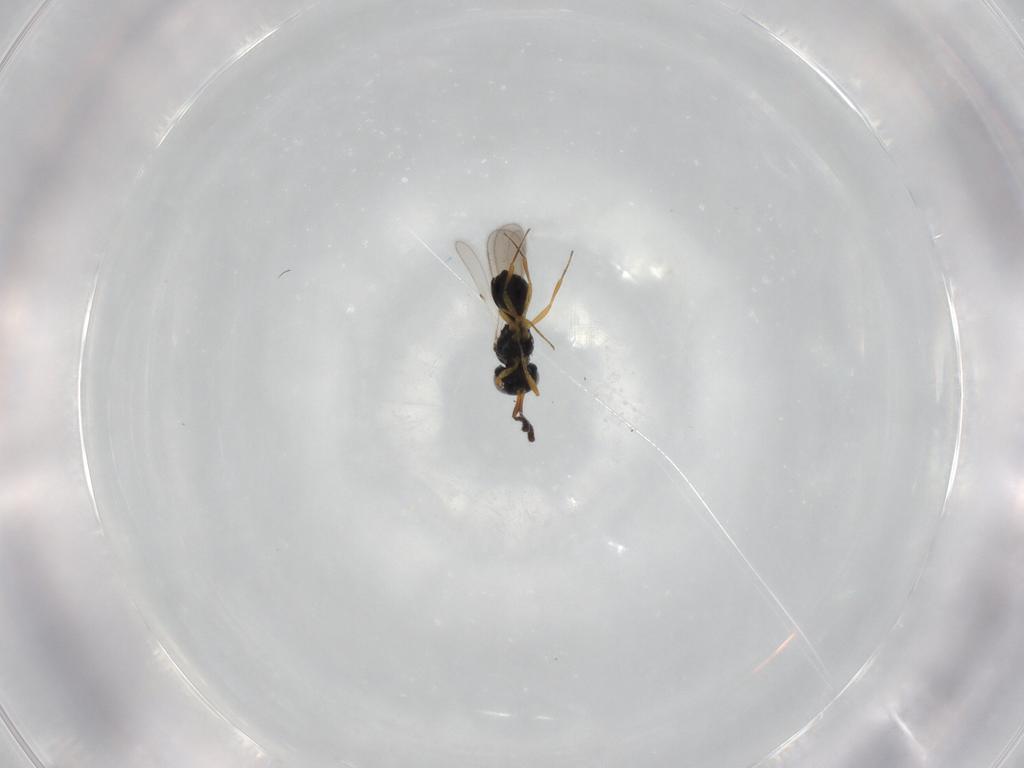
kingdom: Animalia
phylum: Arthropoda
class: Insecta
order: Hymenoptera
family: Scelionidae
